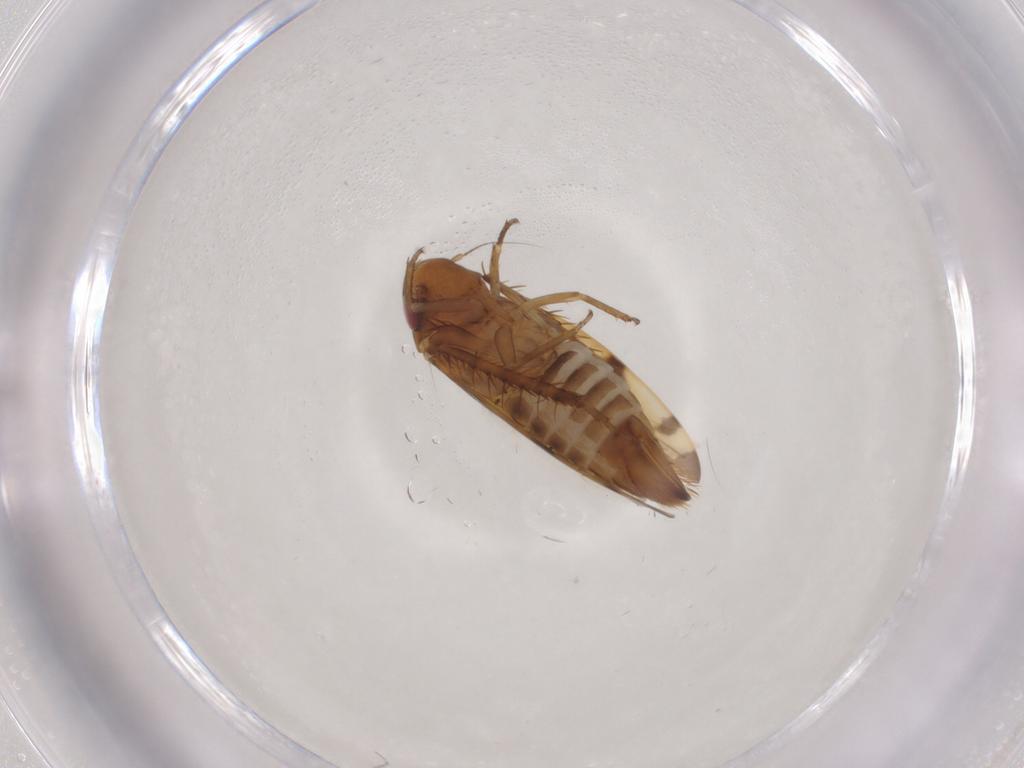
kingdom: Animalia
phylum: Arthropoda
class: Insecta
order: Hemiptera
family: Cicadellidae
